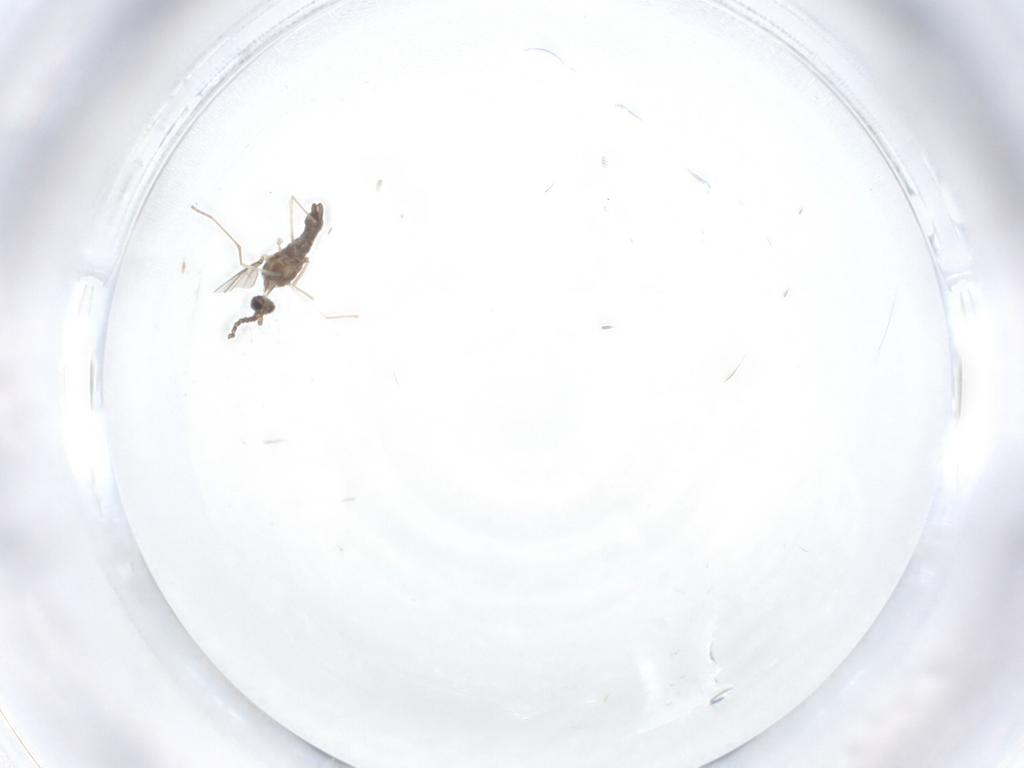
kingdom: Animalia
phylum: Arthropoda
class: Insecta
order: Diptera
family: Cecidomyiidae
